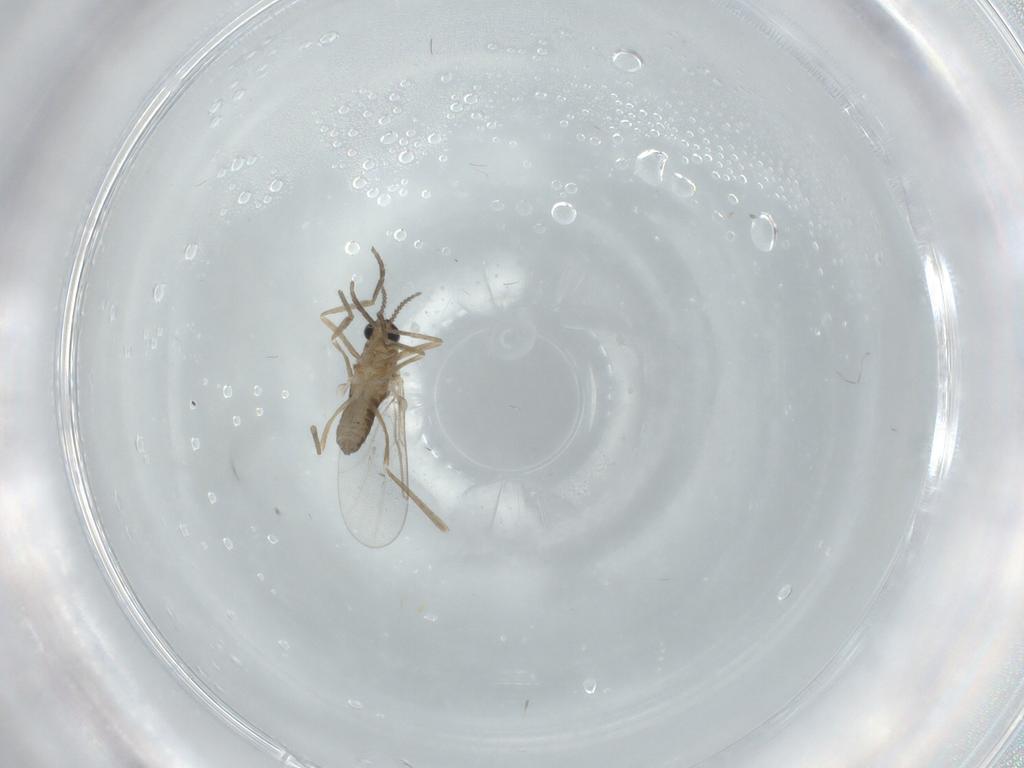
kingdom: Animalia
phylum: Arthropoda
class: Insecta
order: Diptera
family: Cecidomyiidae
